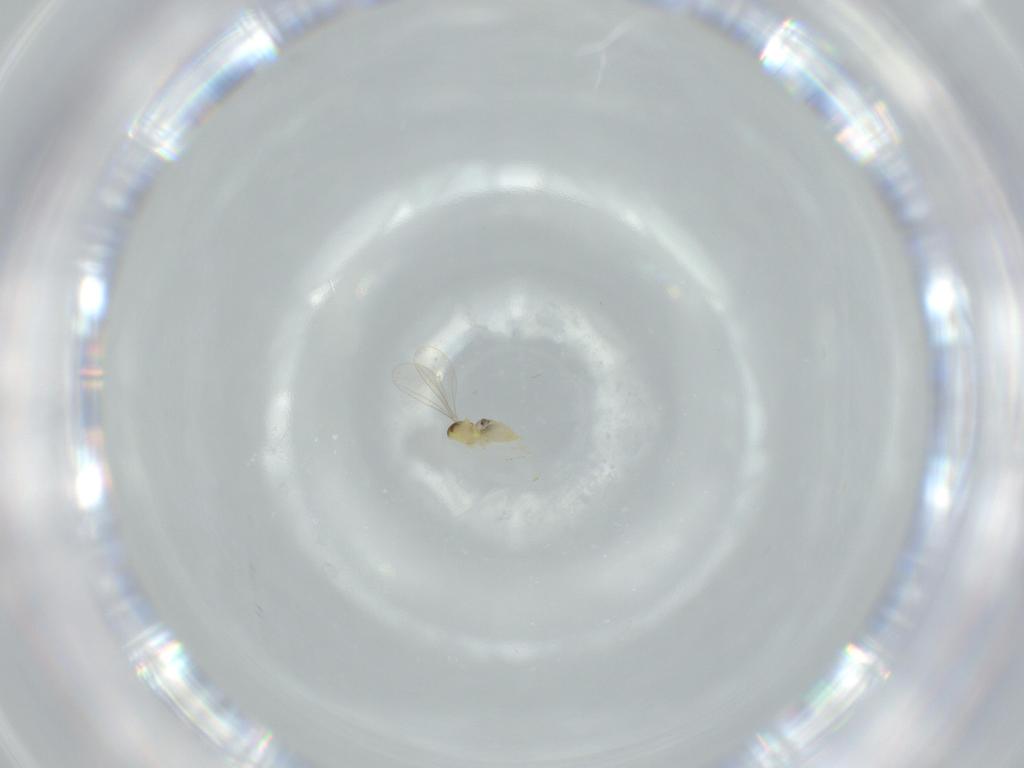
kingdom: Animalia
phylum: Arthropoda
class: Insecta
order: Diptera
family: Cecidomyiidae
